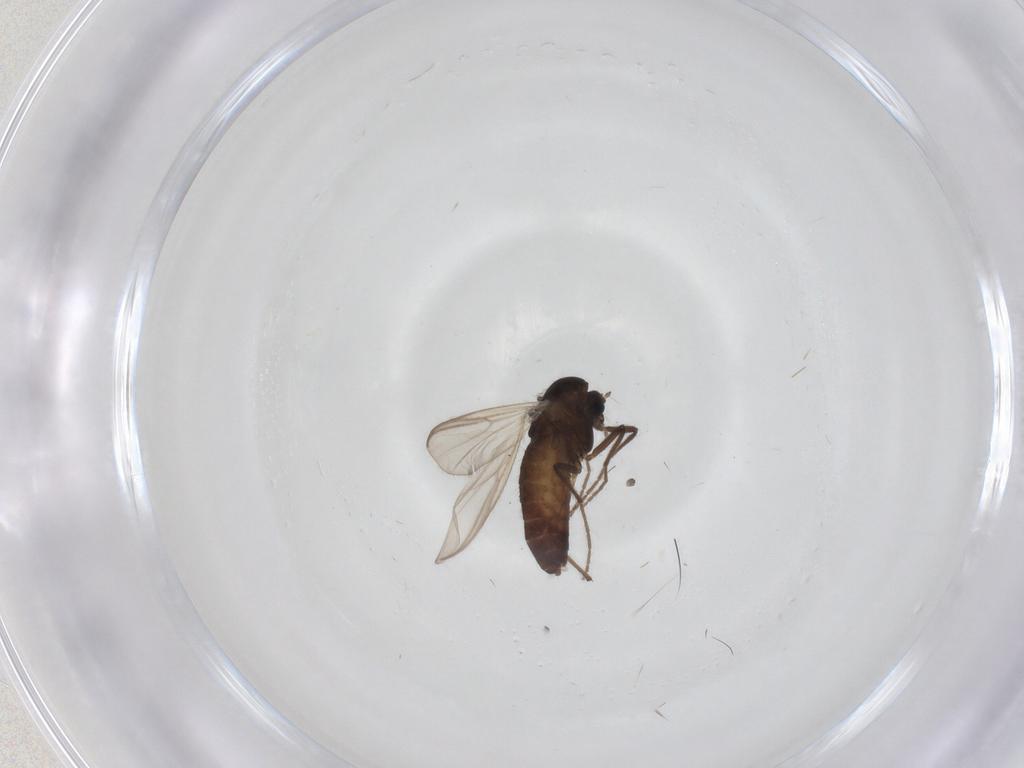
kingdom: Animalia
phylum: Arthropoda
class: Insecta
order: Diptera
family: Chironomidae
